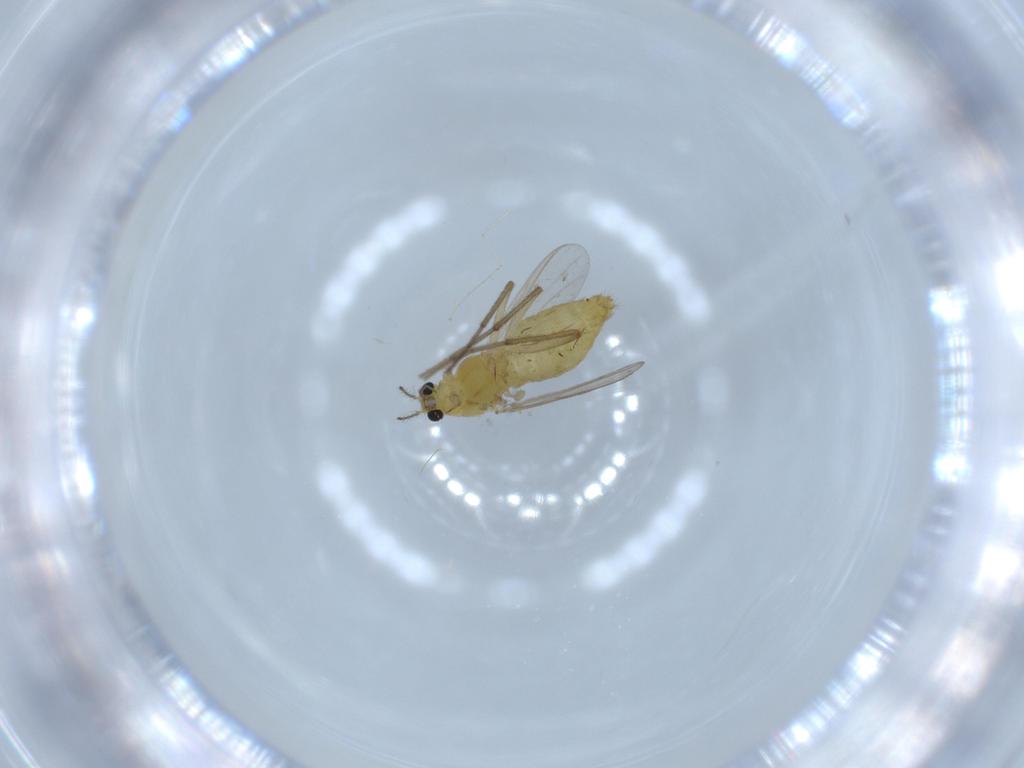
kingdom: Animalia
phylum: Arthropoda
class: Insecta
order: Diptera
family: Chironomidae
